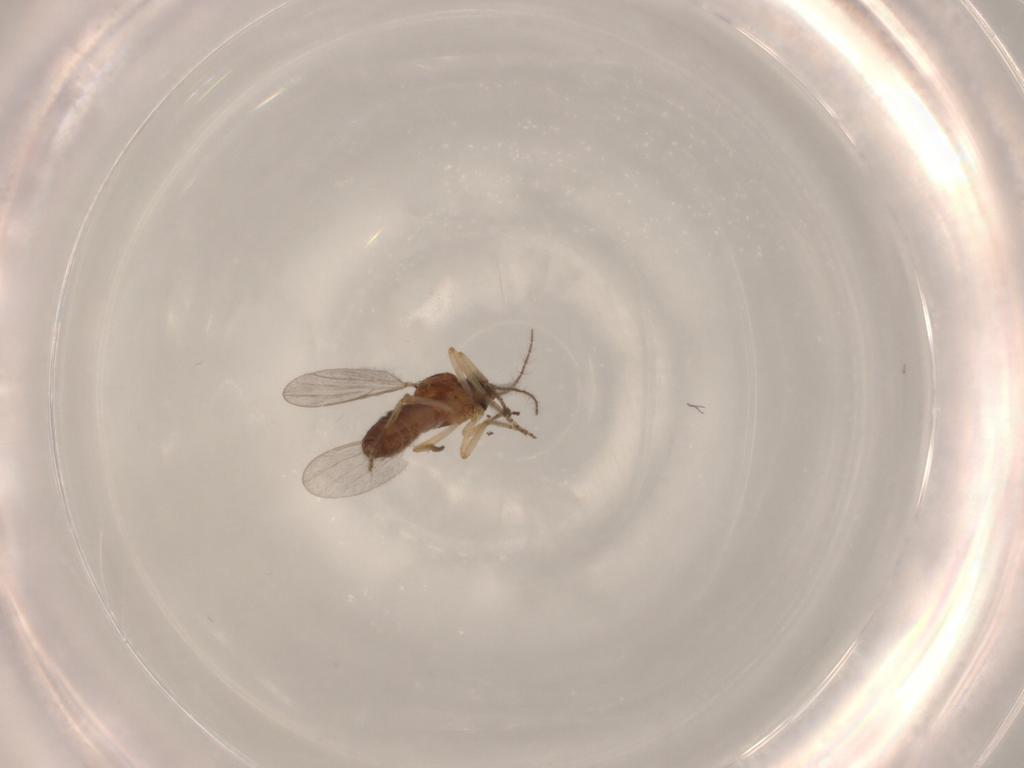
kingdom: Animalia
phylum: Arthropoda
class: Insecta
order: Diptera
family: Ceratopogonidae
